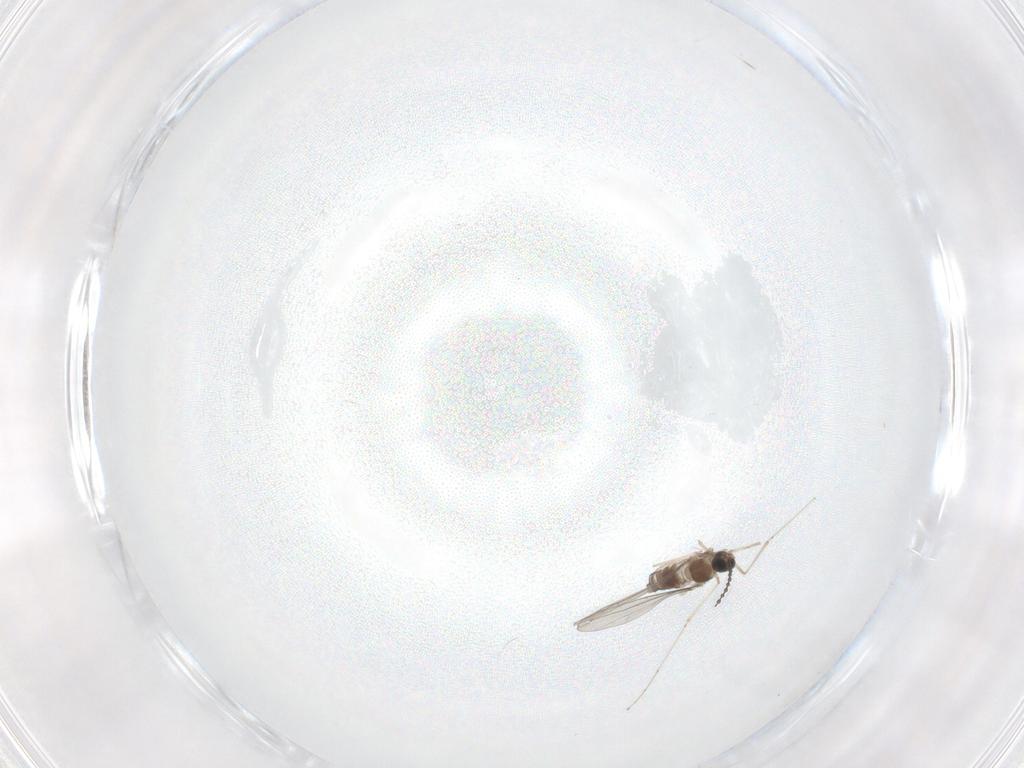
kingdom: Animalia
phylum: Arthropoda
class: Insecta
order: Diptera
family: Cecidomyiidae
